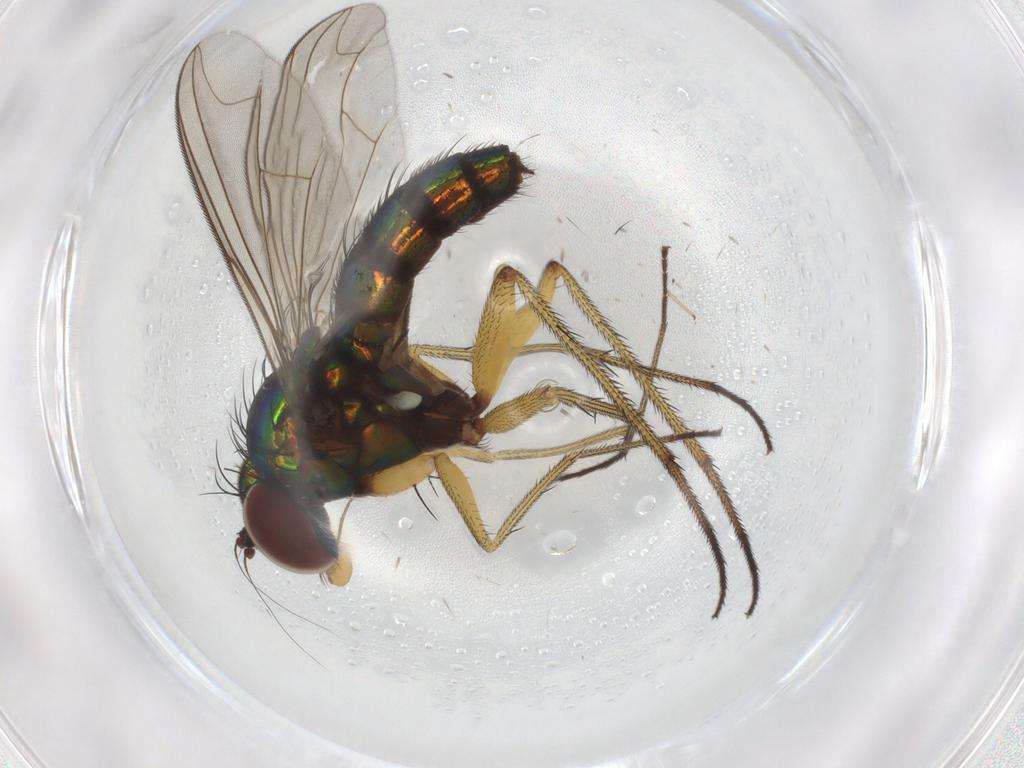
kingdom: Animalia
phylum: Arthropoda
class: Insecta
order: Diptera
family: Dolichopodidae
